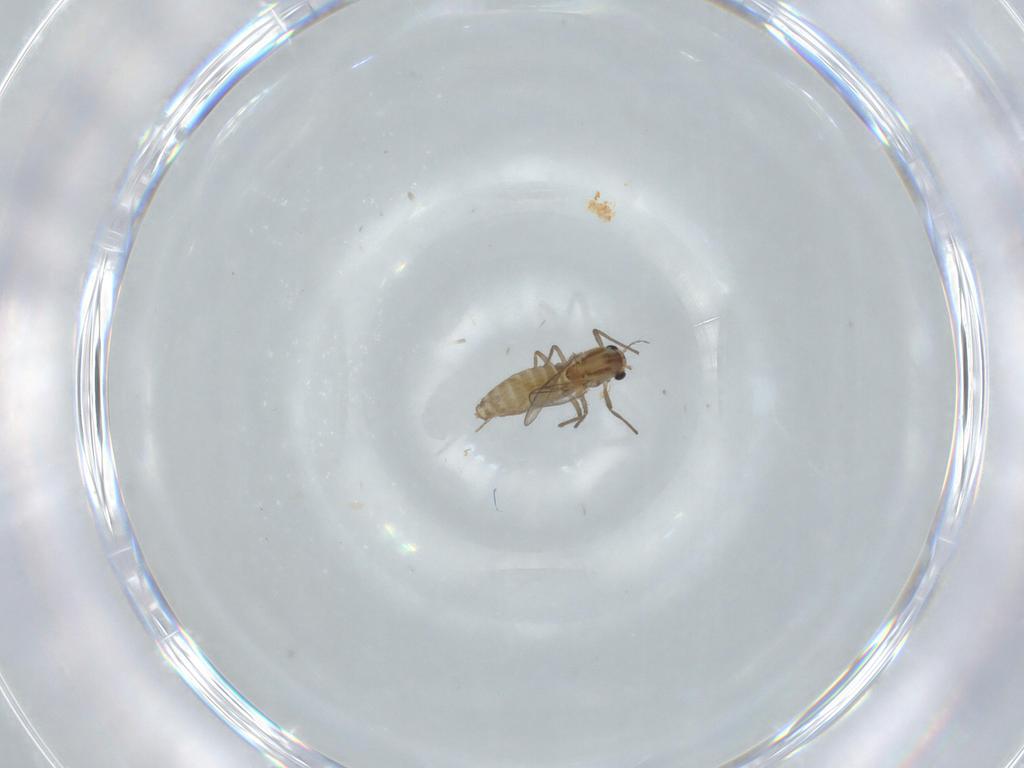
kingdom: Animalia
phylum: Arthropoda
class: Insecta
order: Diptera
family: Chironomidae
